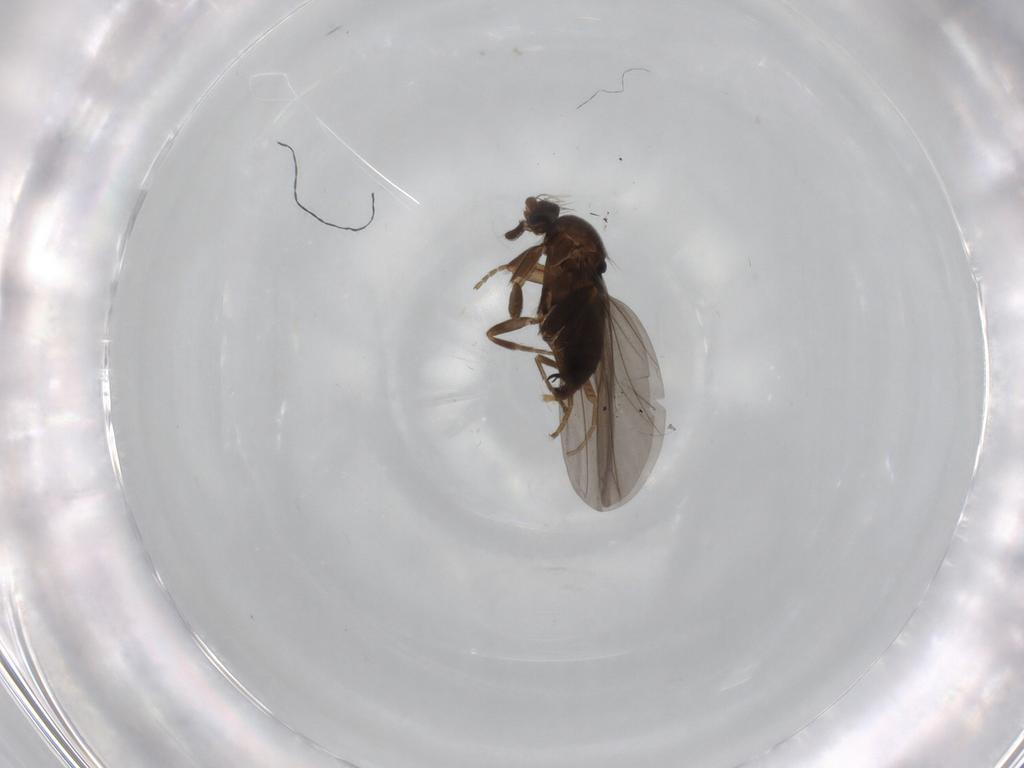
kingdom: Animalia
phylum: Arthropoda
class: Insecta
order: Diptera
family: Phoridae
